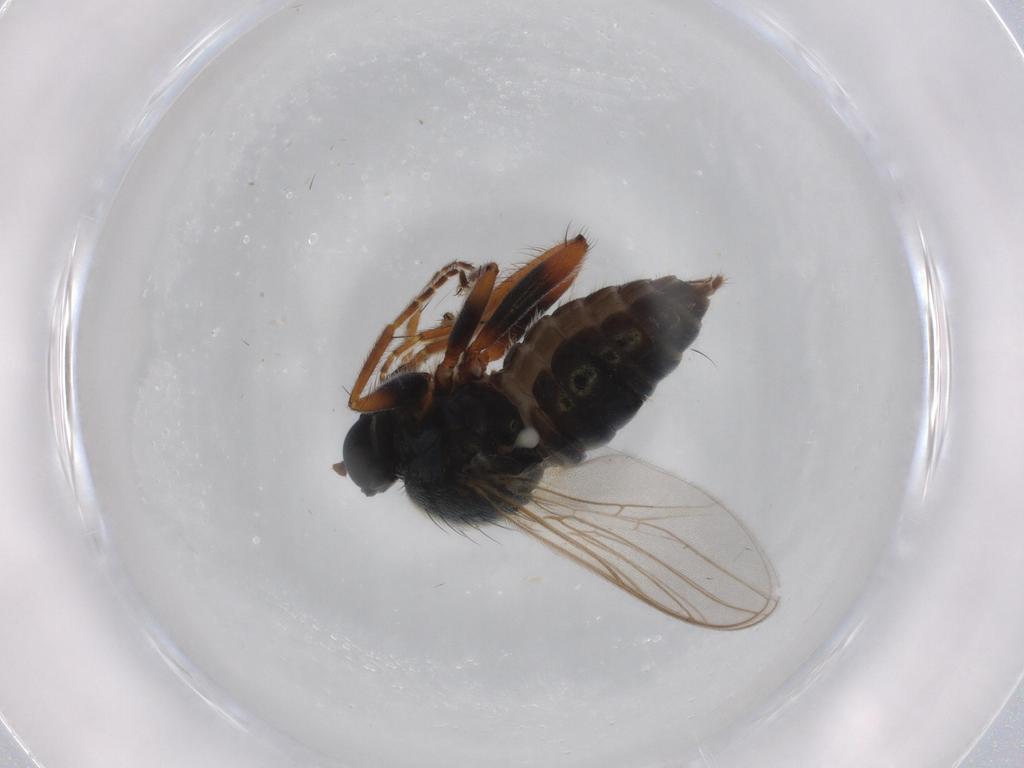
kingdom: Animalia
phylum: Arthropoda
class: Insecta
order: Diptera
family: Hybotidae
